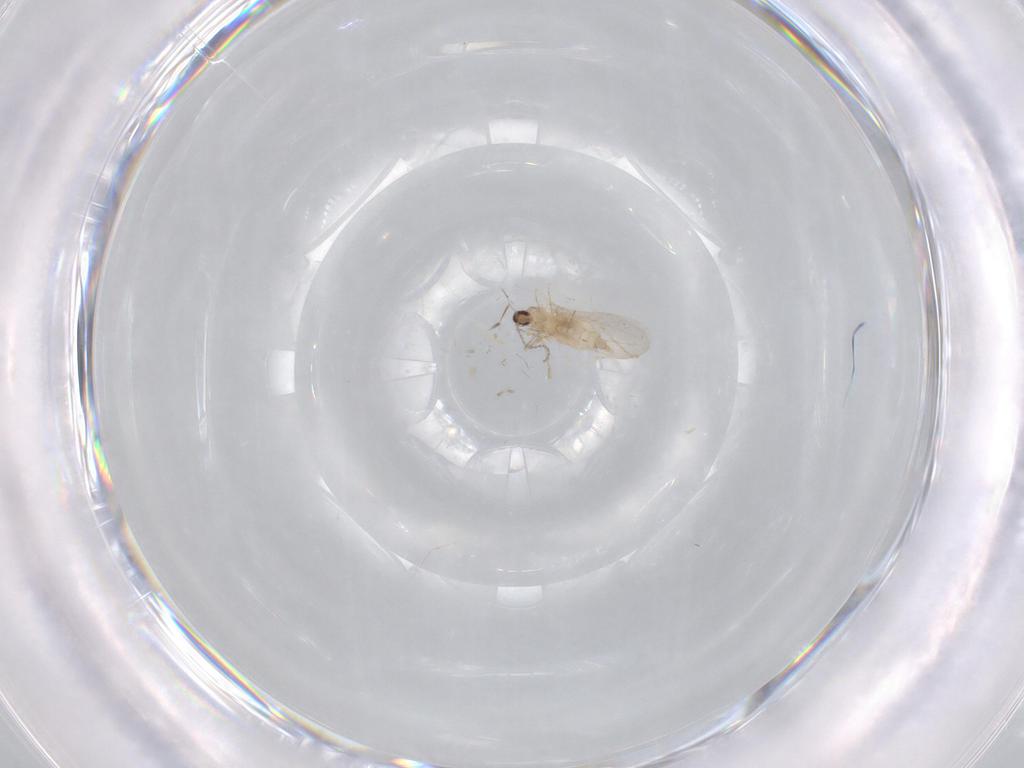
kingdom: Animalia
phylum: Arthropoda
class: Insecta
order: Diptera
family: Cecidomyiidae
